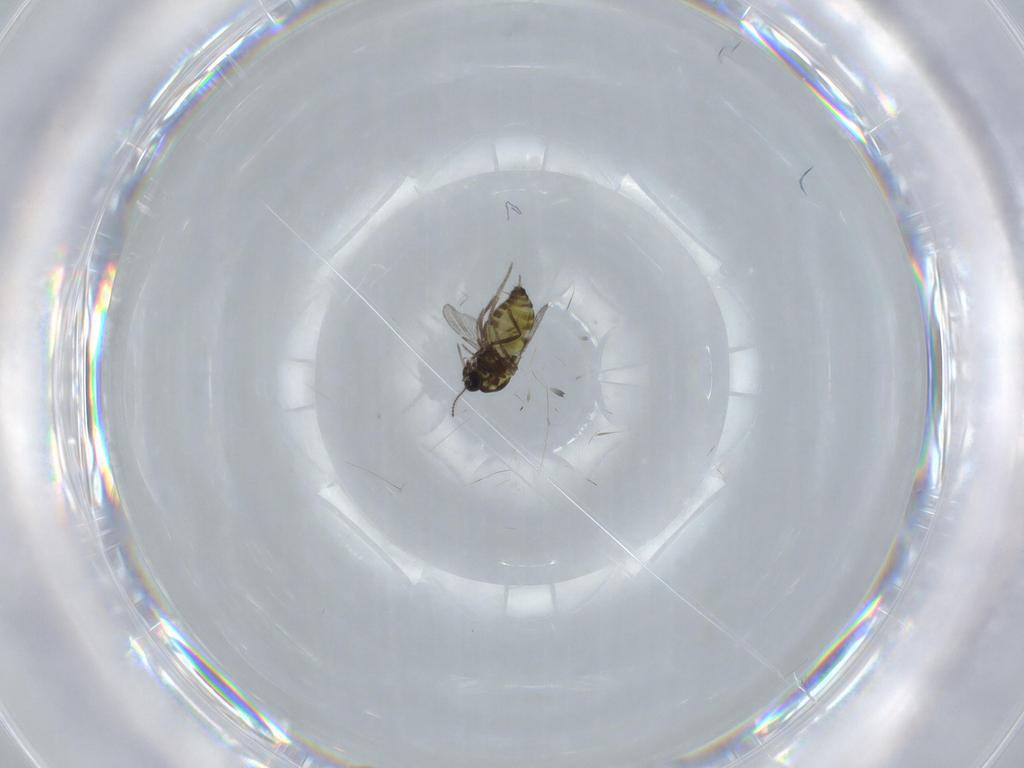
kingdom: Animalia
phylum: Arthropoda
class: Insecta
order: Diptera
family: Ceratopogonidae
